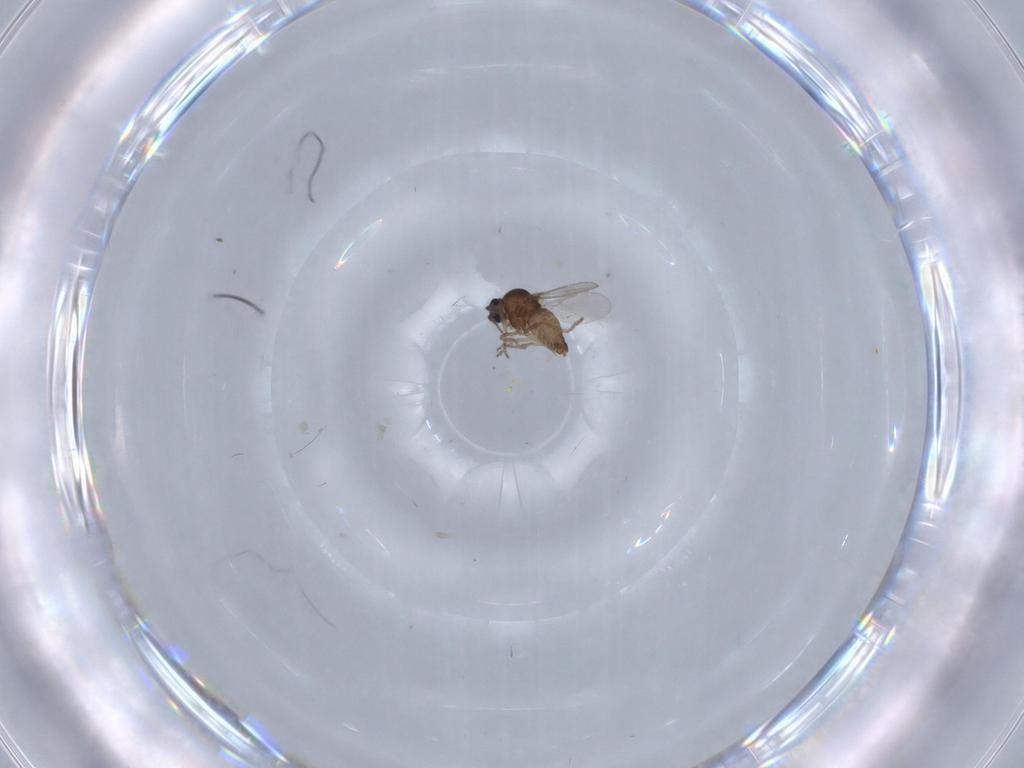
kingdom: Animalia
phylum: Arthropoda
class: Insecta
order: Diptera
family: Ceratopogonidae
